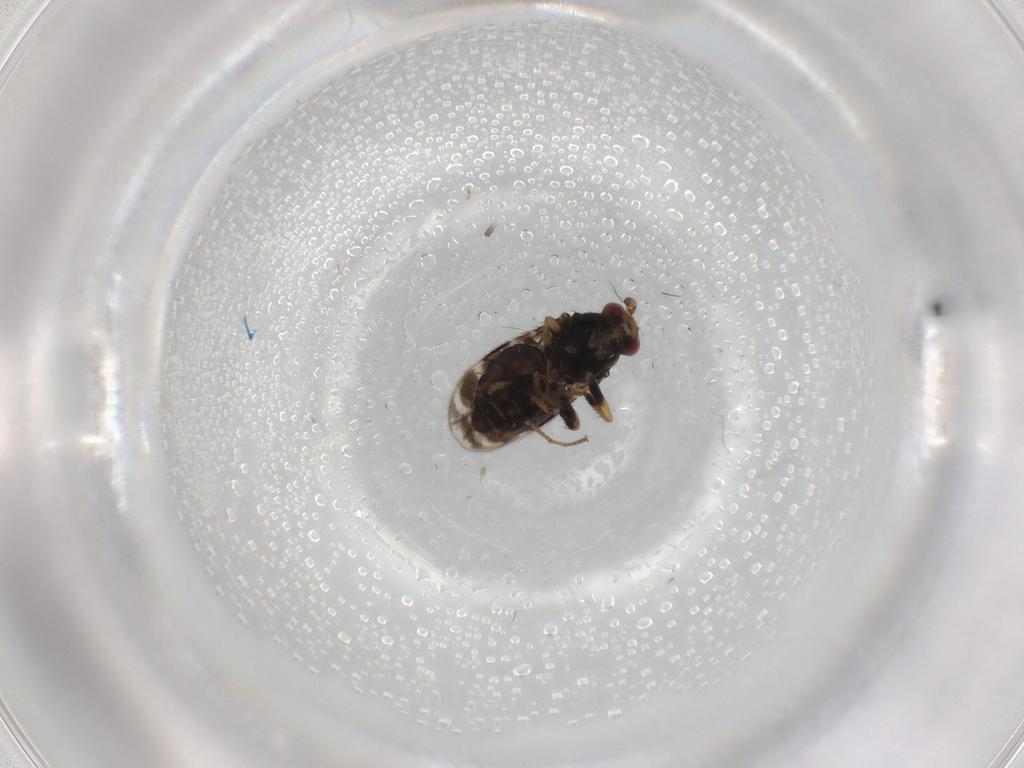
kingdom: Animalia
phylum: Arthropoda
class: Insecta
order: Diptera
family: Sphaeroceridae
